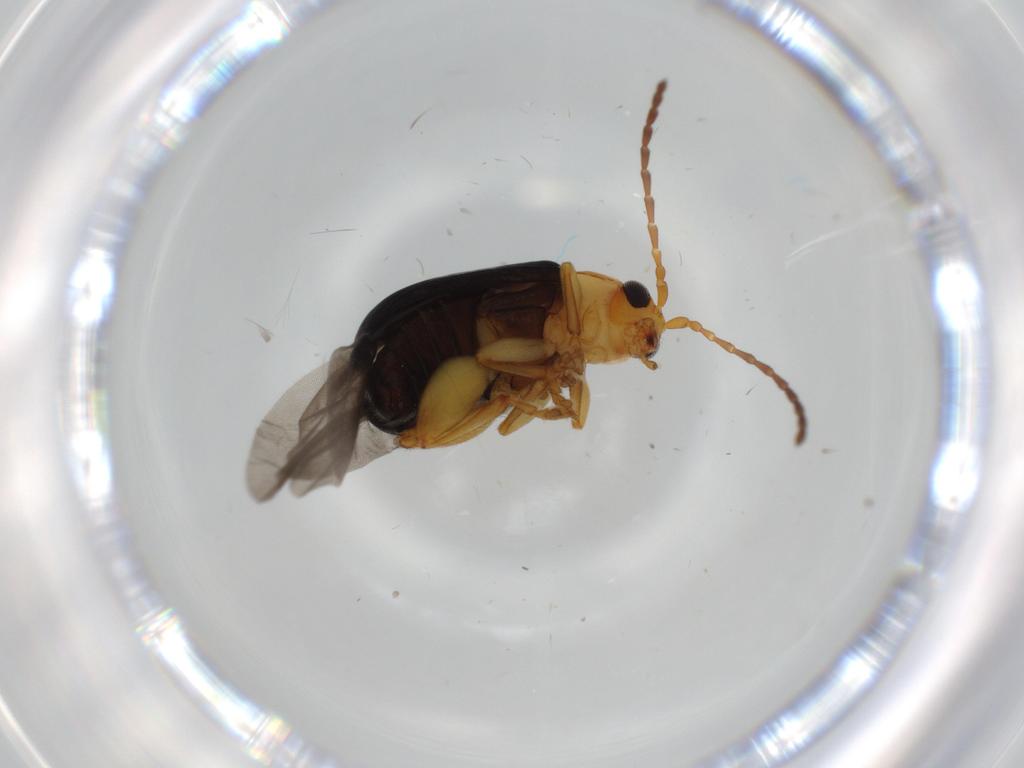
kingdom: Animalia
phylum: Arthropoda
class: Insecta
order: Coleoptera
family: Chrysomelidae
